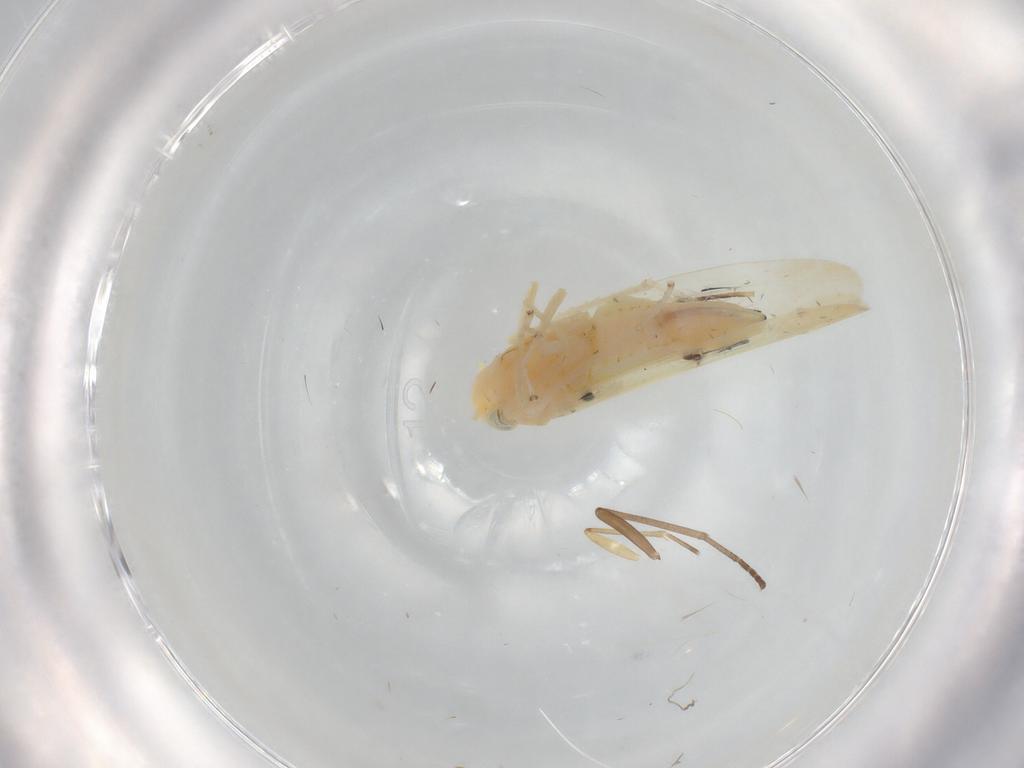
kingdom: Animalia
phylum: Arthropoda
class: Insecta
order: Hemiptera
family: Cicadellidae
